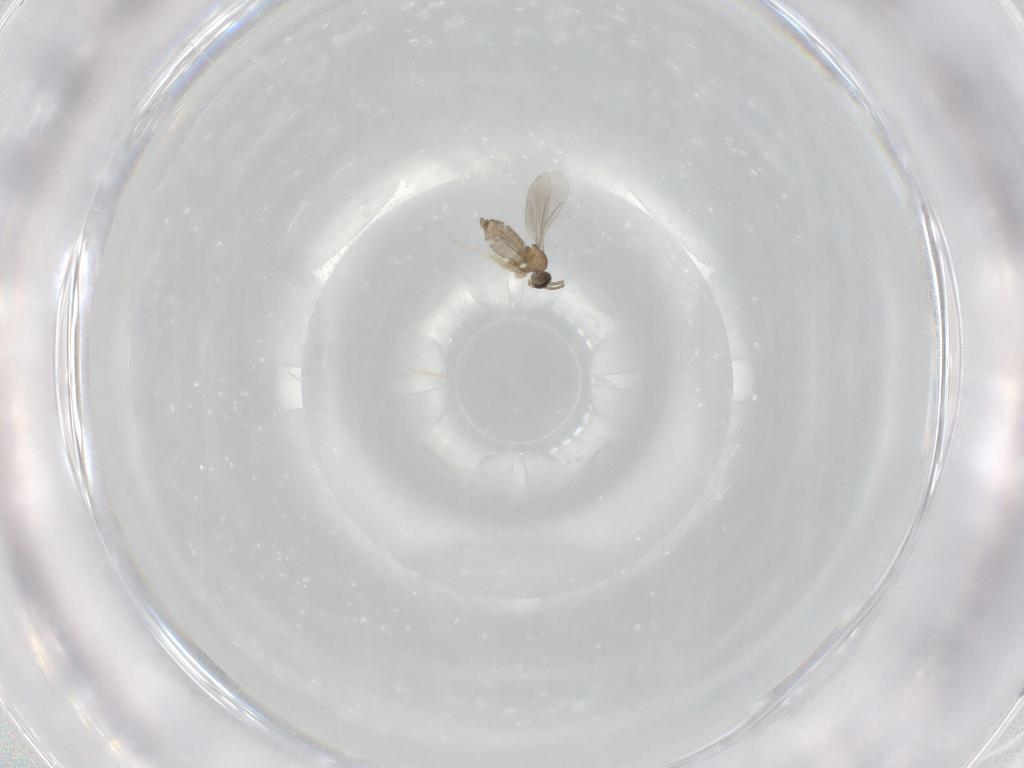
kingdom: Animalia
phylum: Arthropoda
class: Insecta
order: Diptera
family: Cecidomyiidae
